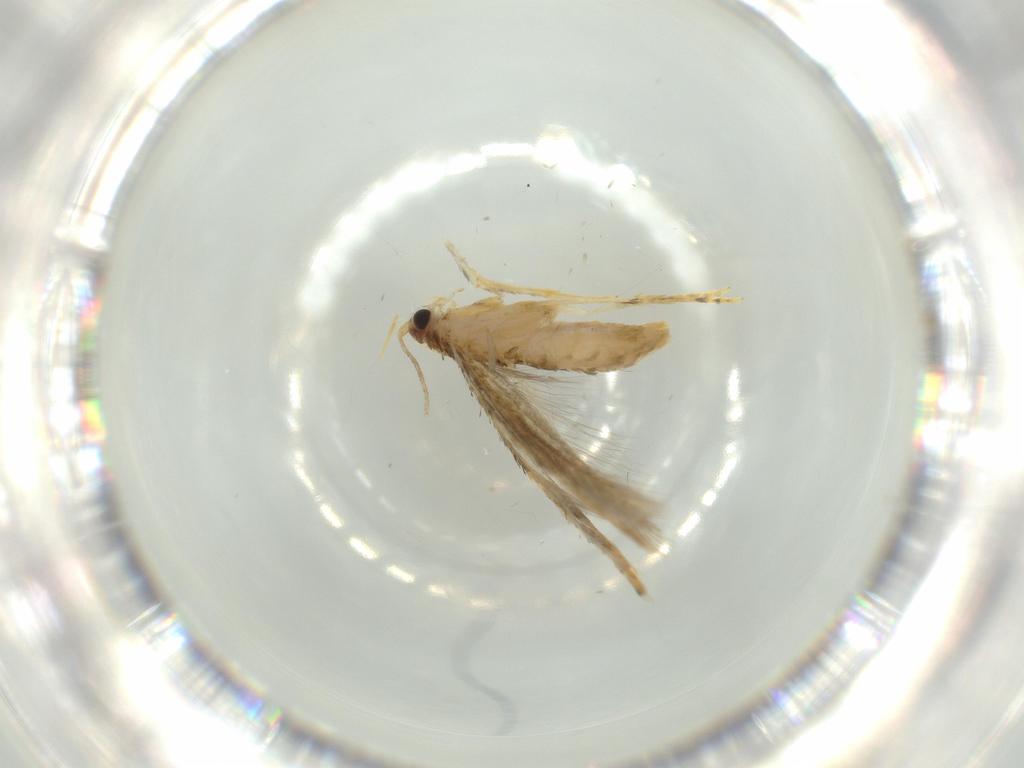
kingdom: Animalia
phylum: Arthropoda
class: Insecta
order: Lepidoptera
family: Tineidae
